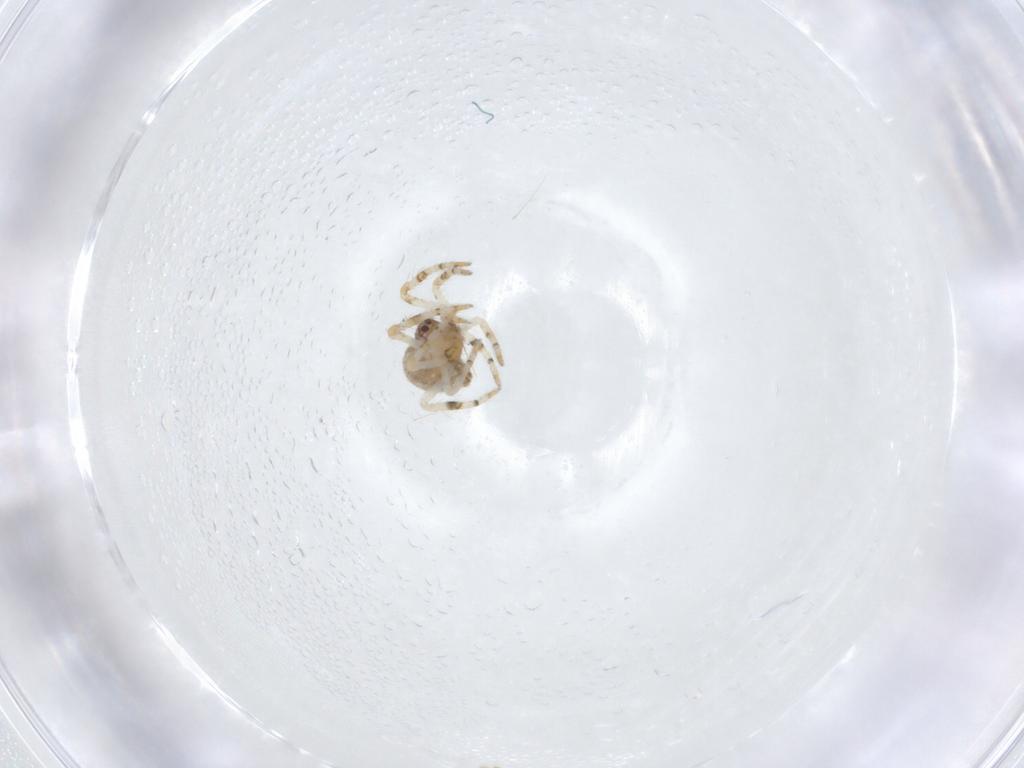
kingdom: Animalia
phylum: Arthropoda
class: Arachnida
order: Araneae
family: Theridiidae
